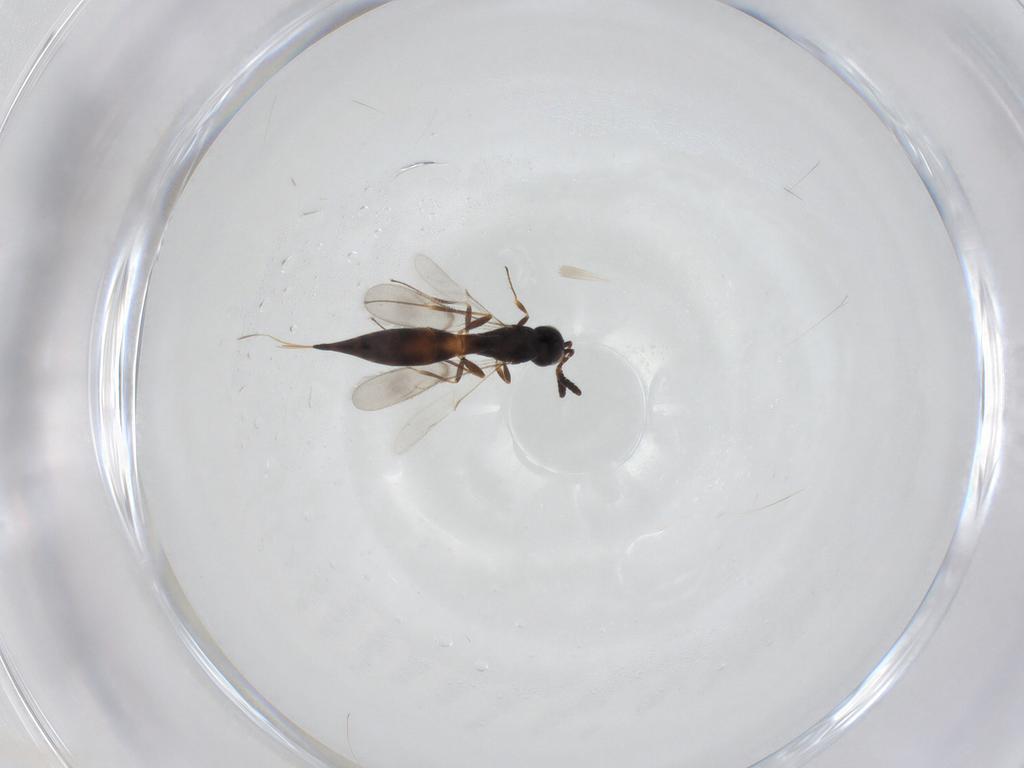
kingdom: Animalia
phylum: Arthropoda
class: Insecta
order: Hymenoptera
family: Scelionidae
